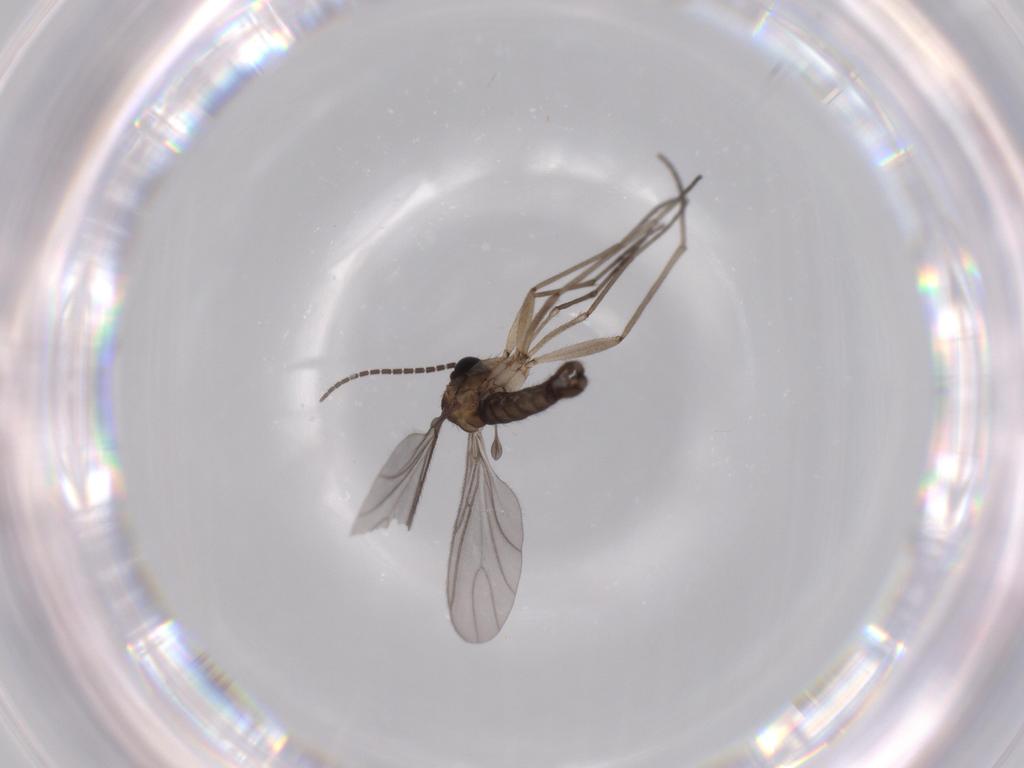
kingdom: Animalia
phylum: Arthropoda
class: Insecta
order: Diptera
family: Sciaridae
